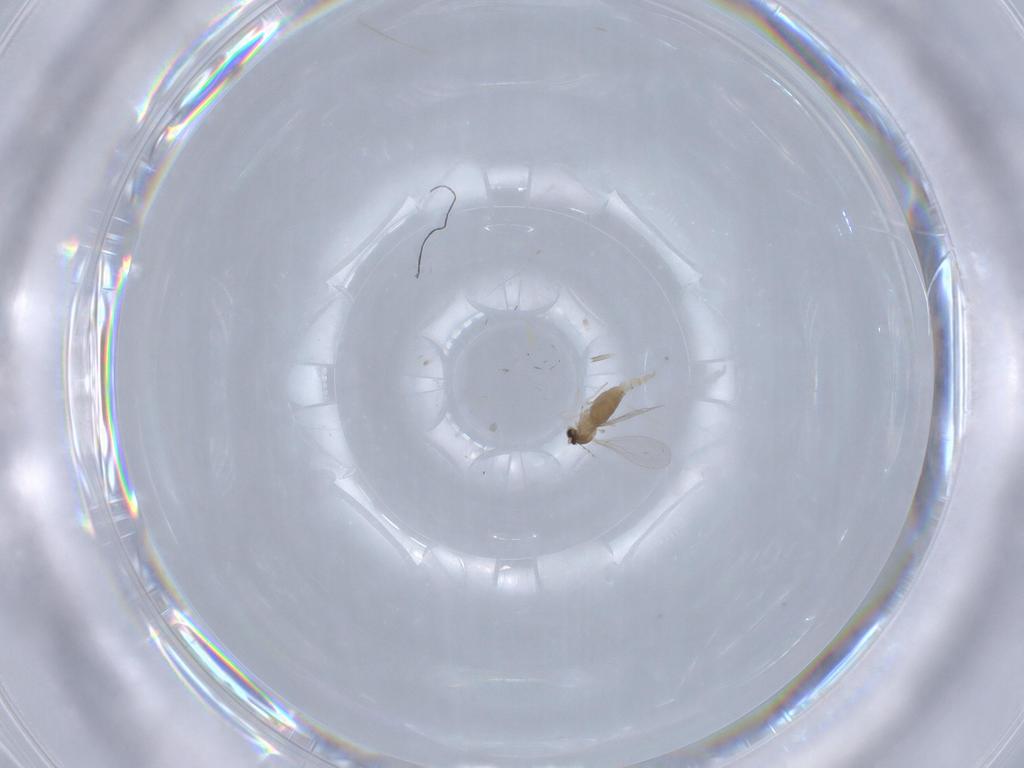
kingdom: Animalia
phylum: Arthropoda
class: Insecta
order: Diptera
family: Cecidomyiidae
